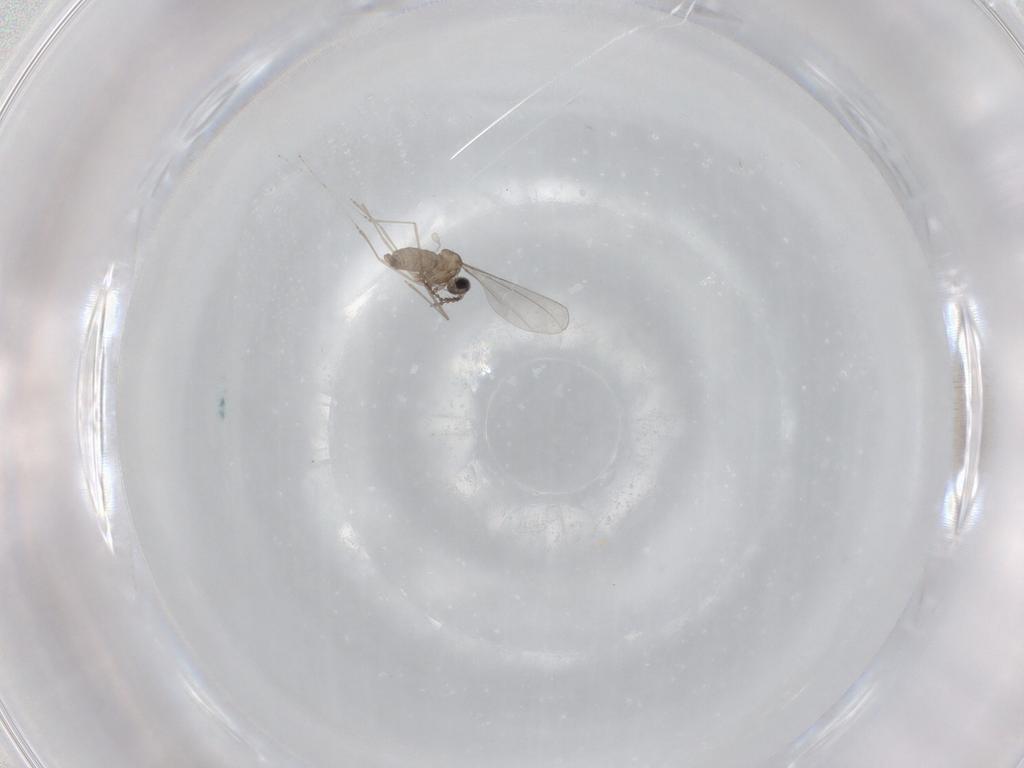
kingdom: Animalia
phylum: Arthropoda
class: Insecta
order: Diptera
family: Cecidomyiidae
